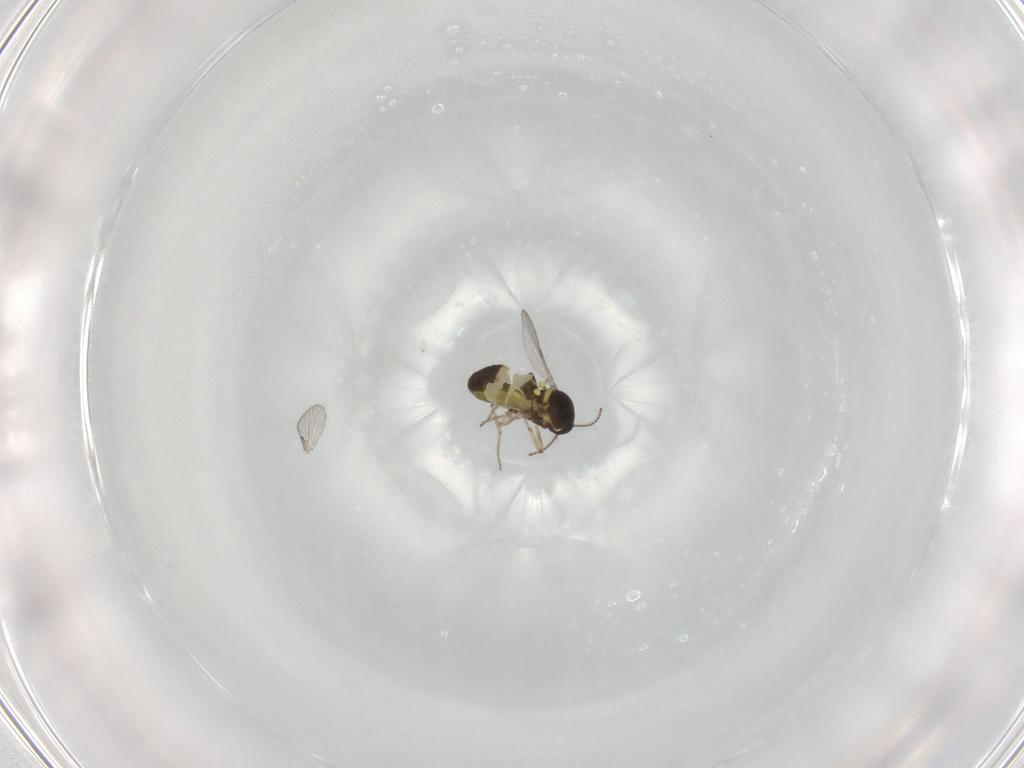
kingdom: Animalia
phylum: Arthropoda
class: Insecta
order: Diptera
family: Ceratopogonidae
